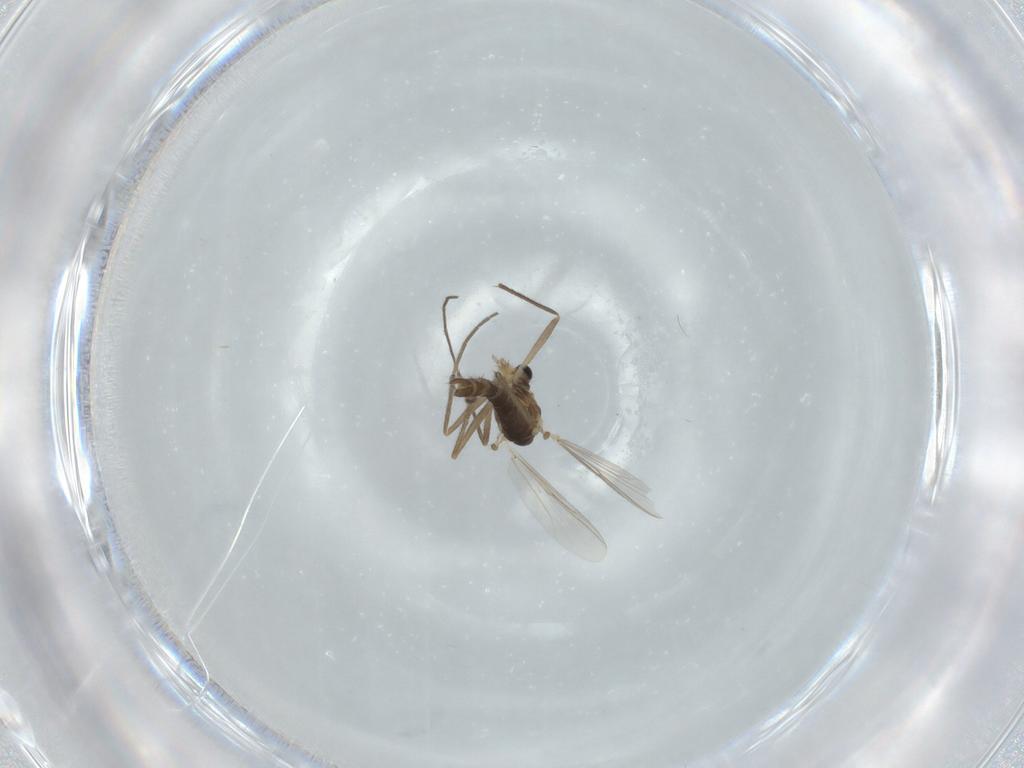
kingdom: Animalia
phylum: Arthropoda
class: Insecta
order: Diptera
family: Chironomidae
